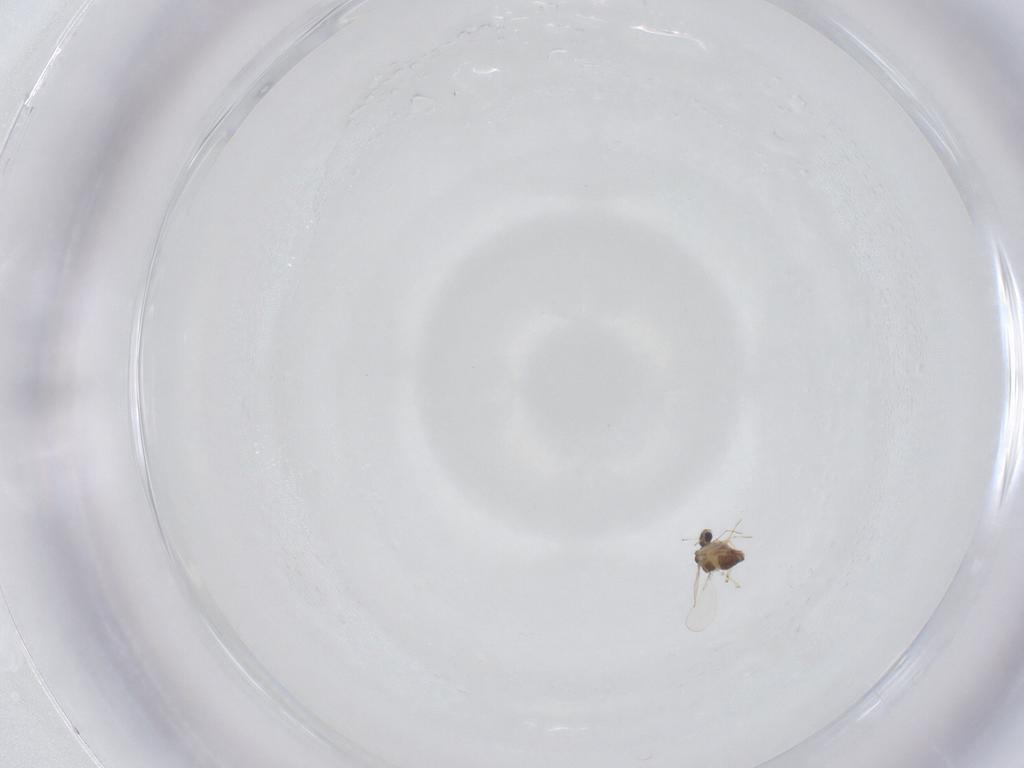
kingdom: Animalia
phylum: Arthropoda
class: Insecta
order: Diptera
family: Chironomidae
